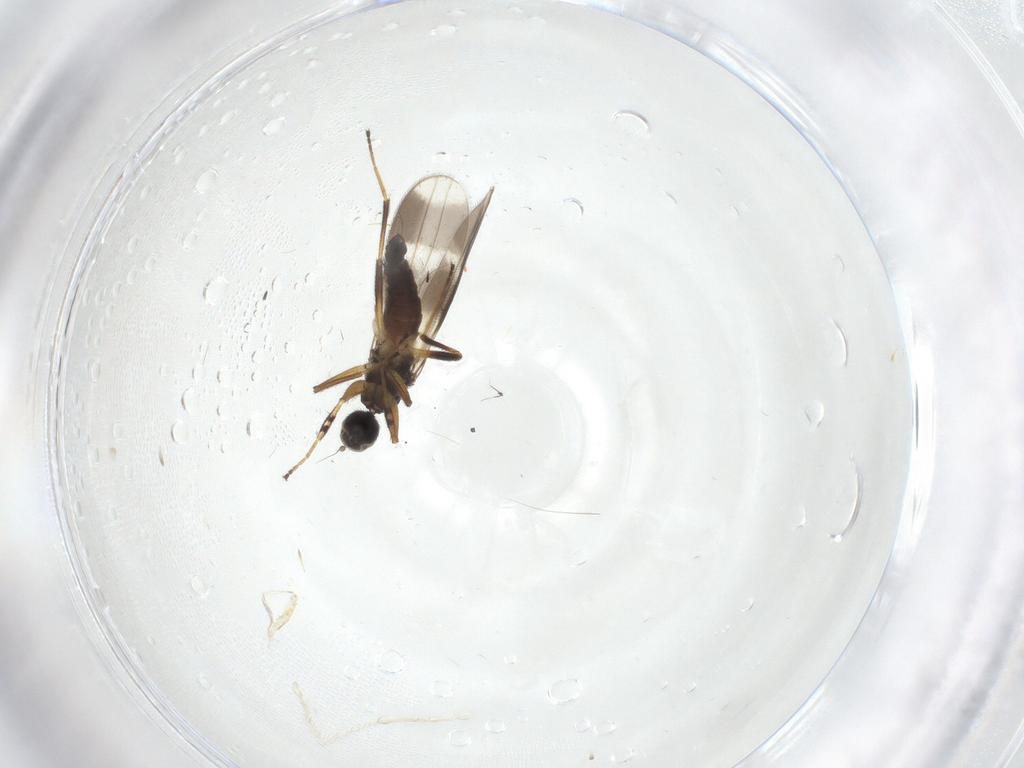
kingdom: Animalia
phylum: Arthropoda
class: Insecta
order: Diptera
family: Hybotidae
